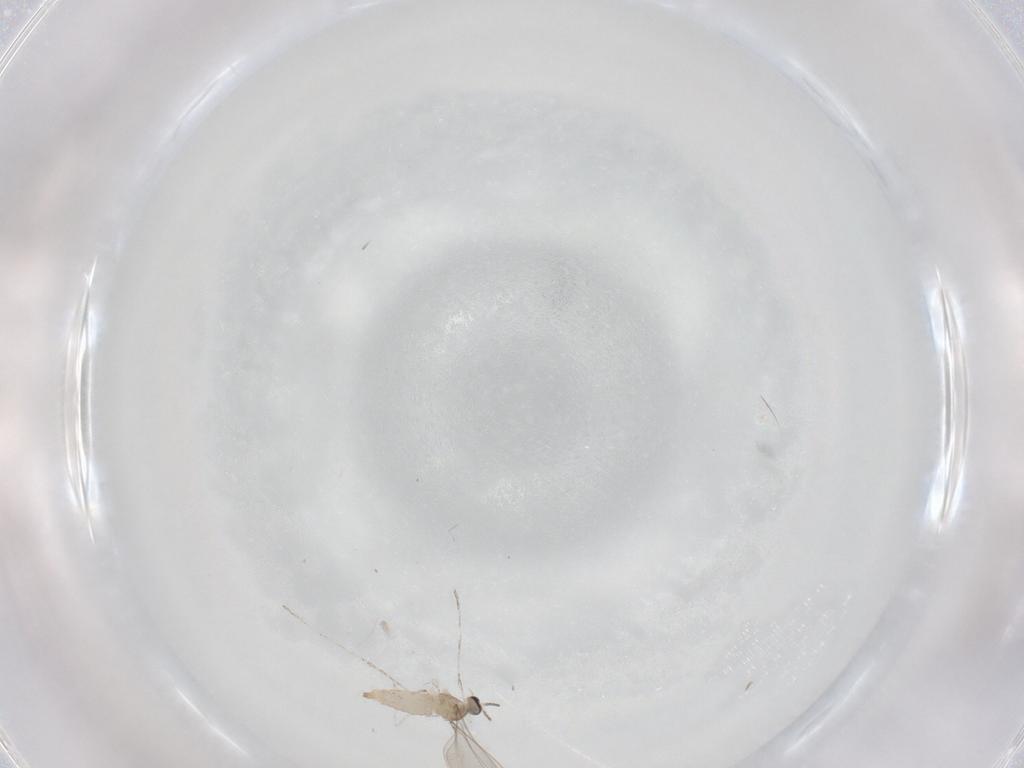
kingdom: Animalia
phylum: Arthropoda
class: Insecta
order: Diptera
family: Cecidomyiidae
